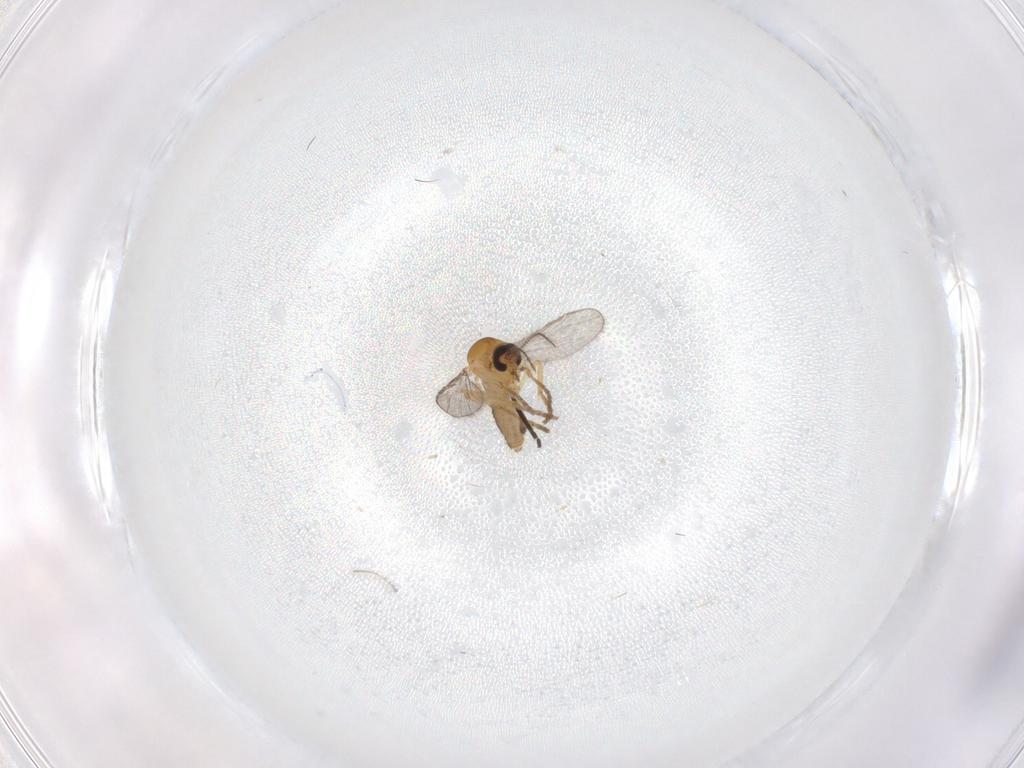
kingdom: Animalia
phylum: Arthropoda
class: Insecta
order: Diptera
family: Ceratopogonidae
